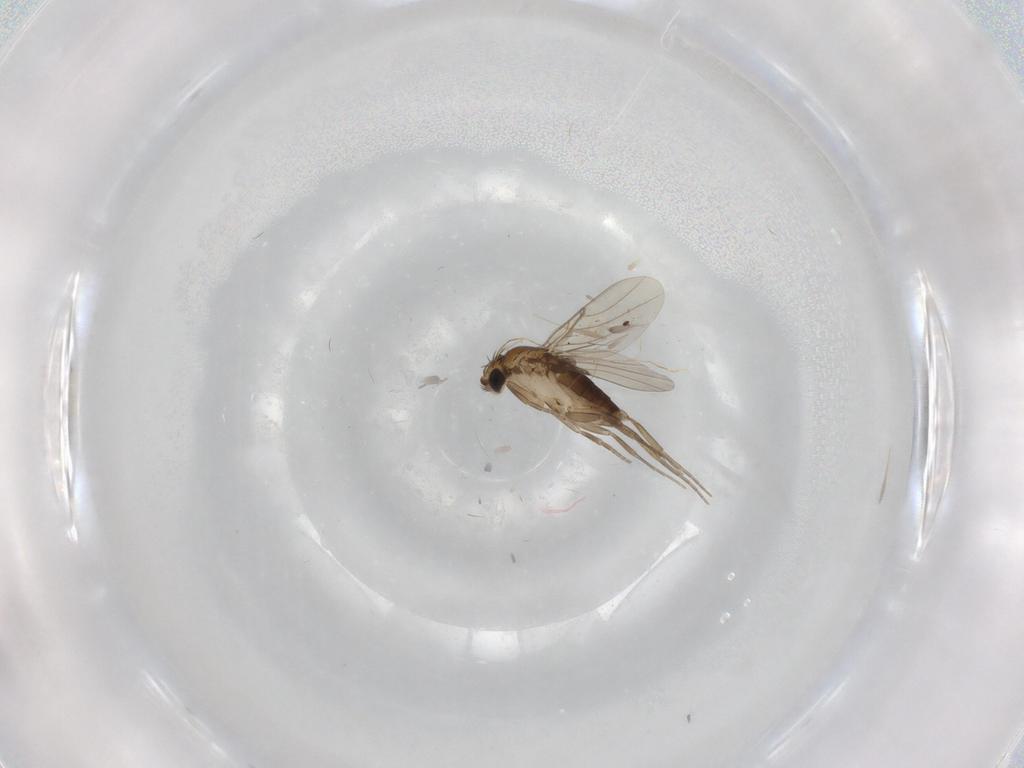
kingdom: Animalia
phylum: Arthropoda
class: Insecta
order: Diptera
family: Phoridae
